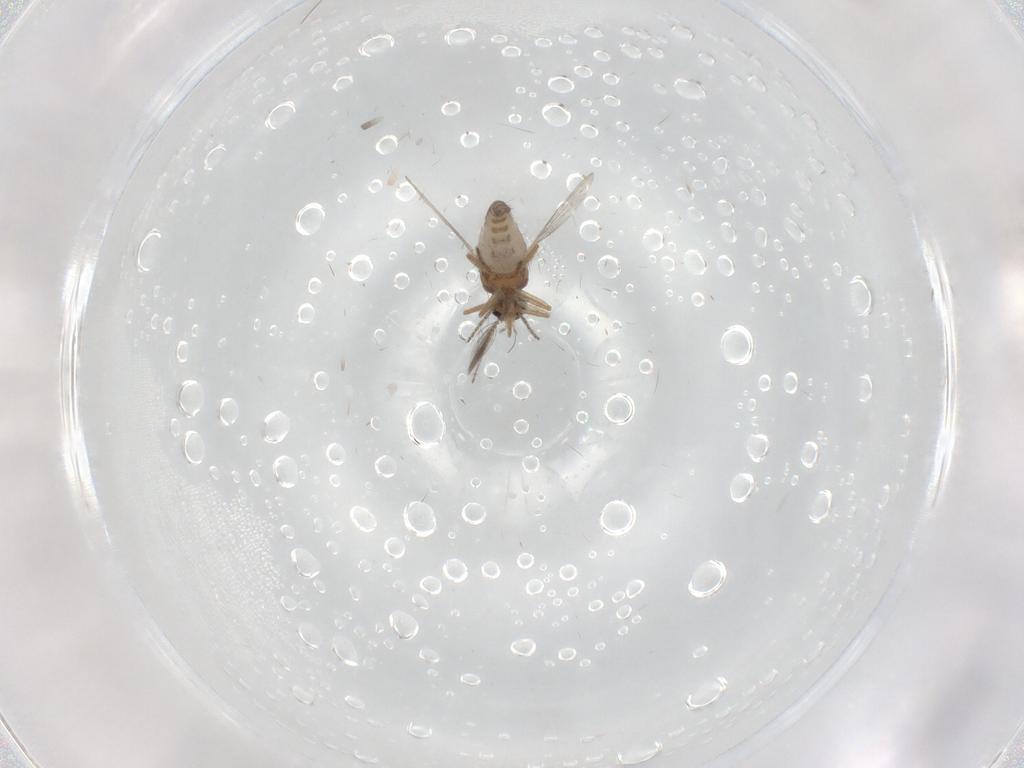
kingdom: Animalia
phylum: Arthropoda
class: Insecta
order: Diptera
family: Ceratopogonidae
